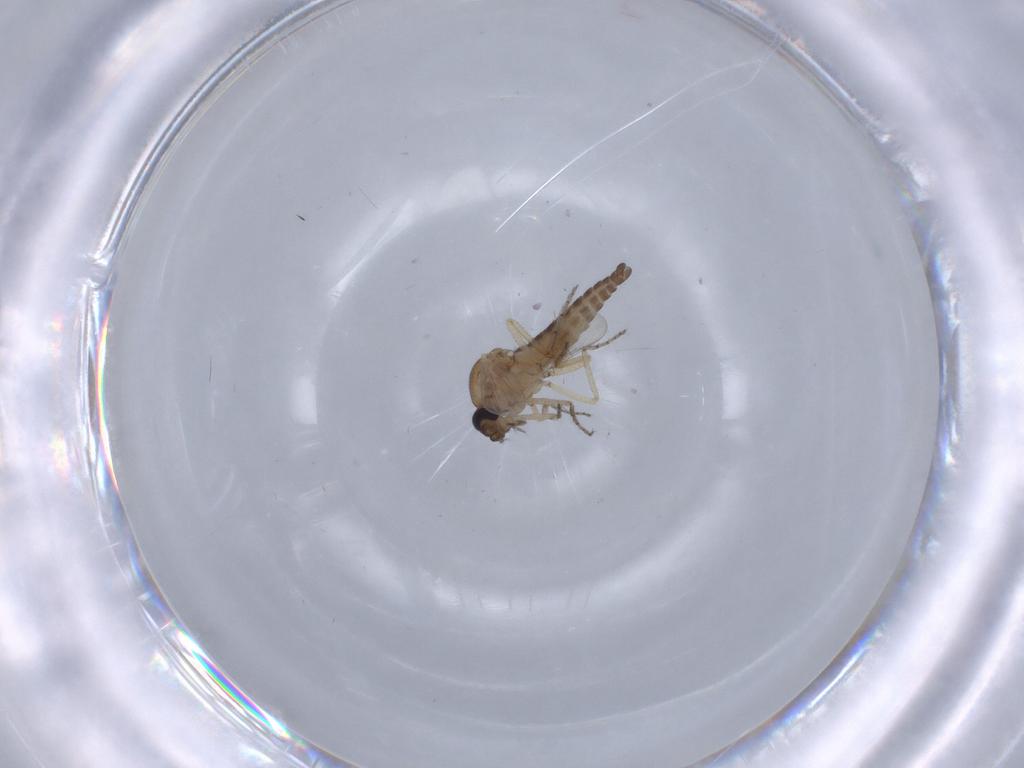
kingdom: Animalia
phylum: Arthropoda
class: Insecta
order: Diptera
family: Ceratopogonidae
